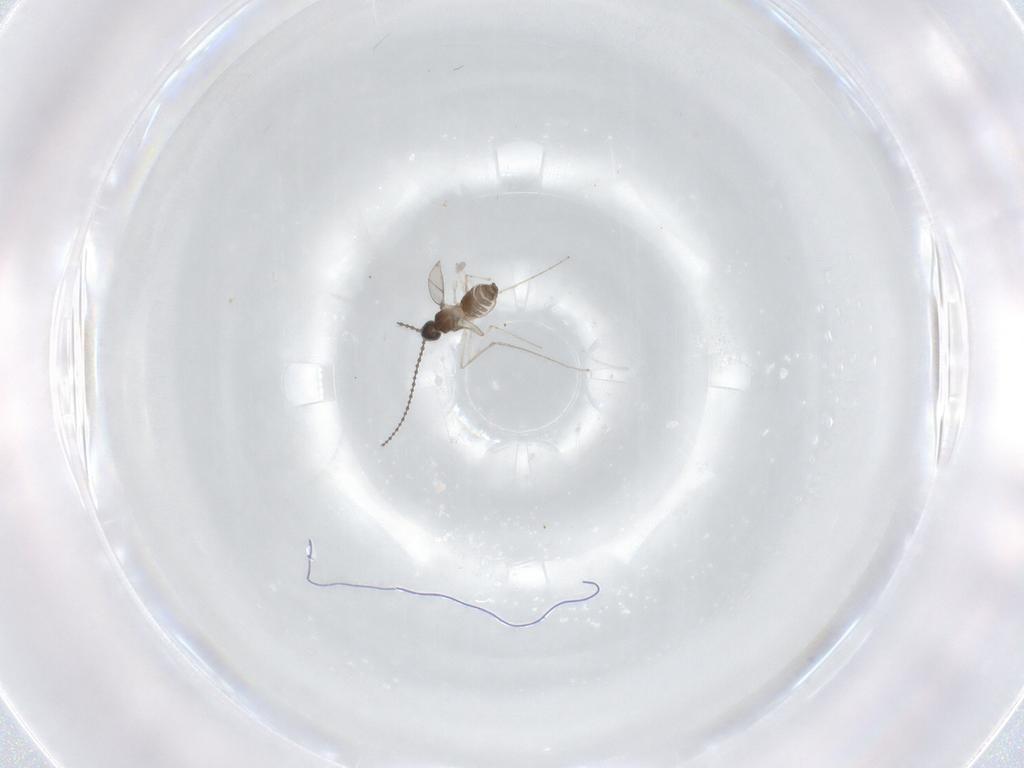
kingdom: Animalia
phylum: Arthropoda
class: Insecta
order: Diptera
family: Cecidomyiidae
